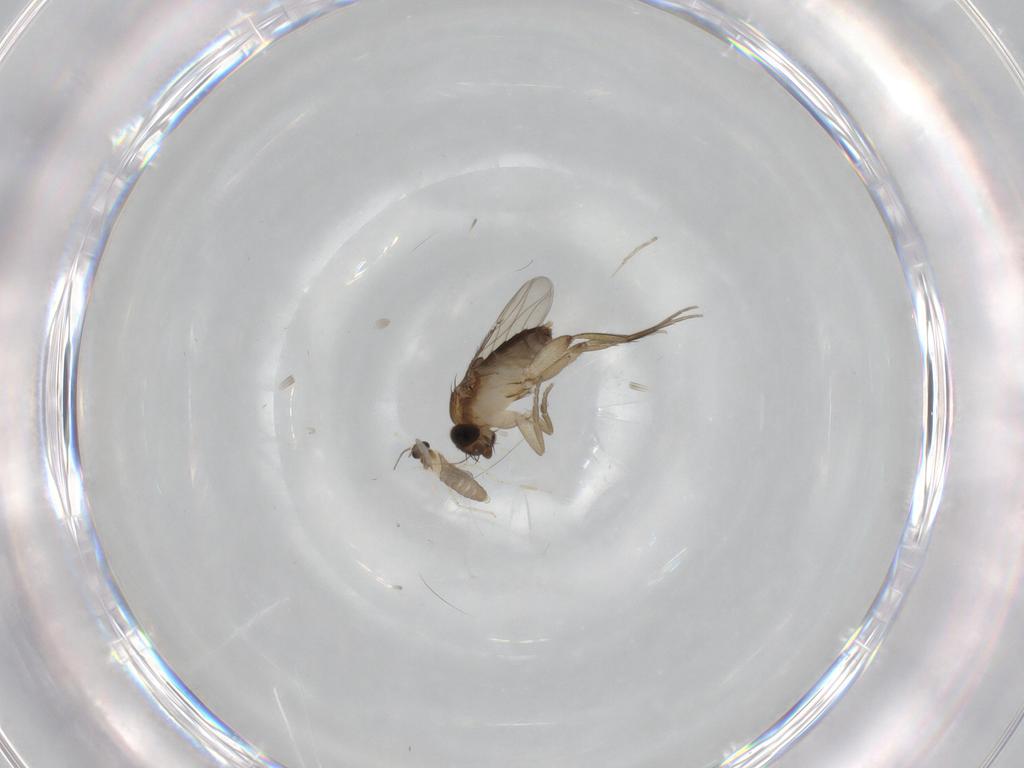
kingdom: Animalia
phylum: Arthropoda
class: Insecta
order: Diptera
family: Phoridae
